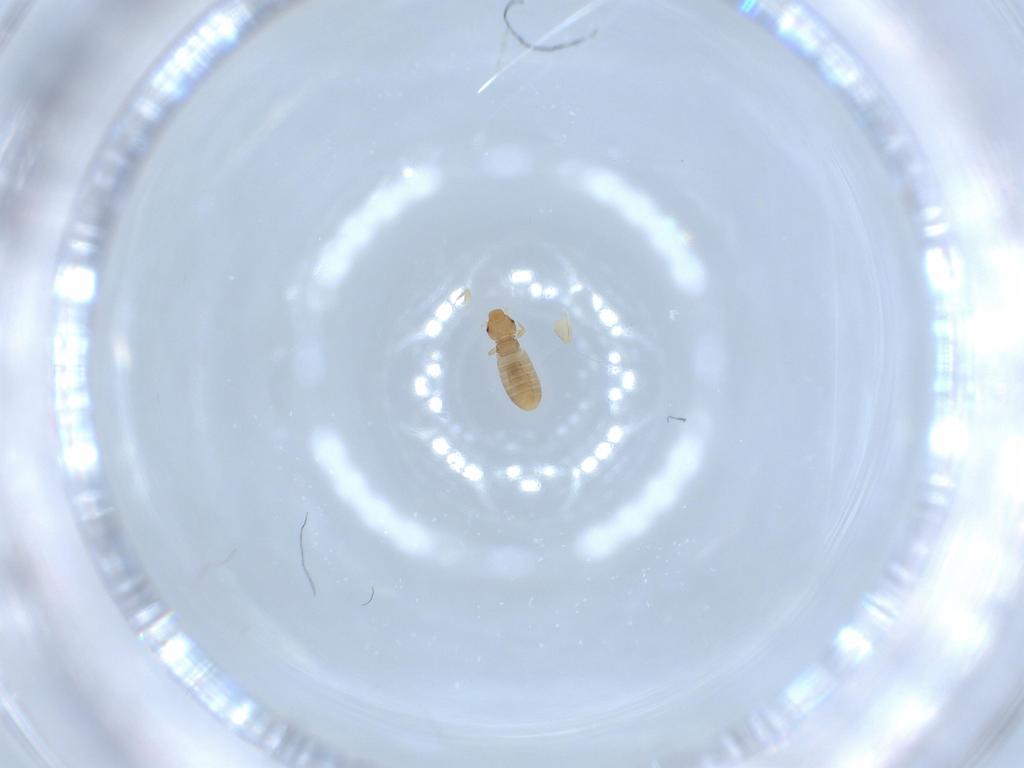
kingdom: Animalia
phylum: Arthropoda
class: Insecta
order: Psocodea
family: Liposcelididae
